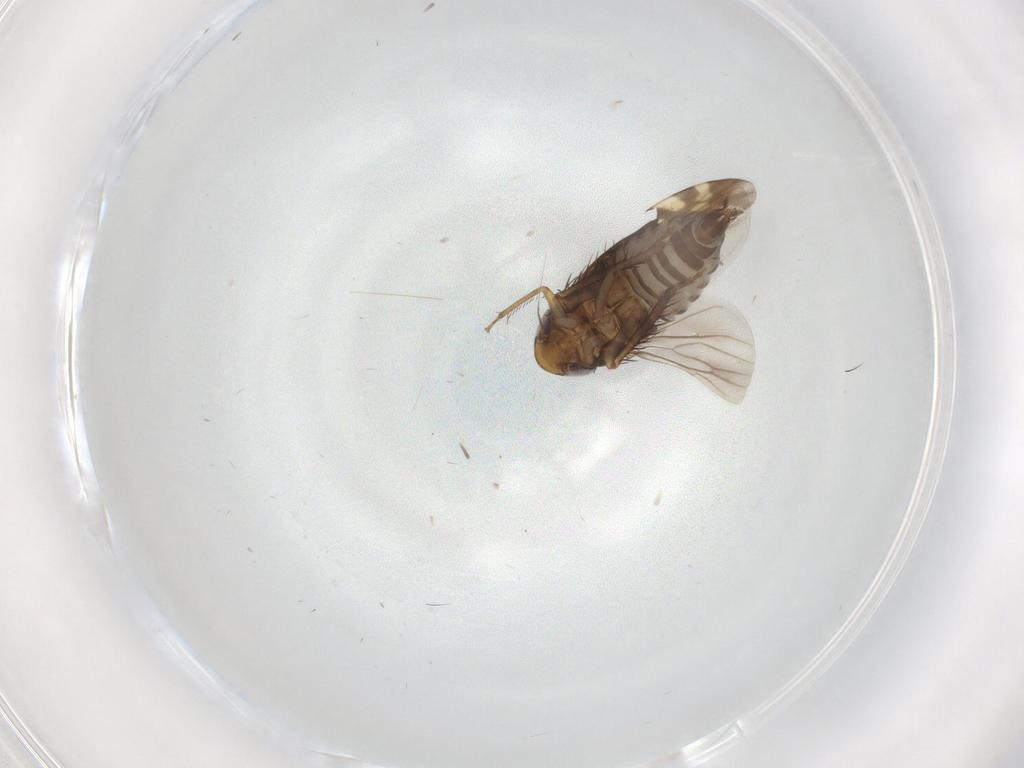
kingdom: Animalia
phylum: Arthropoda
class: Insecta
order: Hemiptera
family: Cicadellidae
